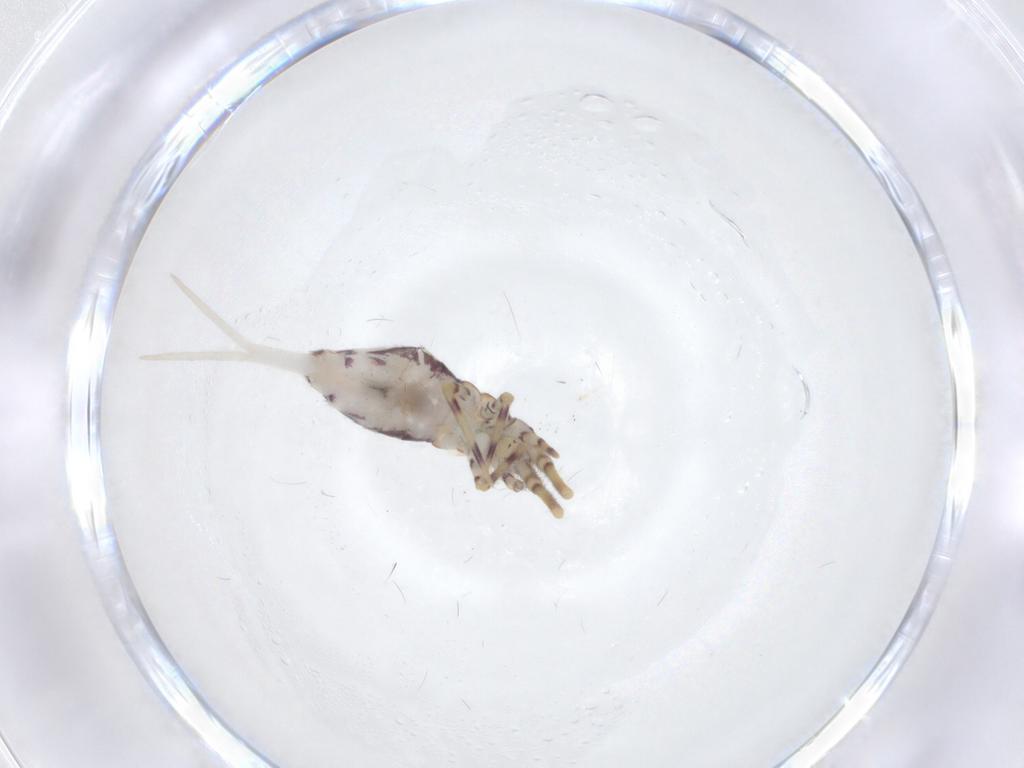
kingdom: Animalia
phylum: Arthropoda
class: Collembola
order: Entomobryomorpha
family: Entomobryidae
